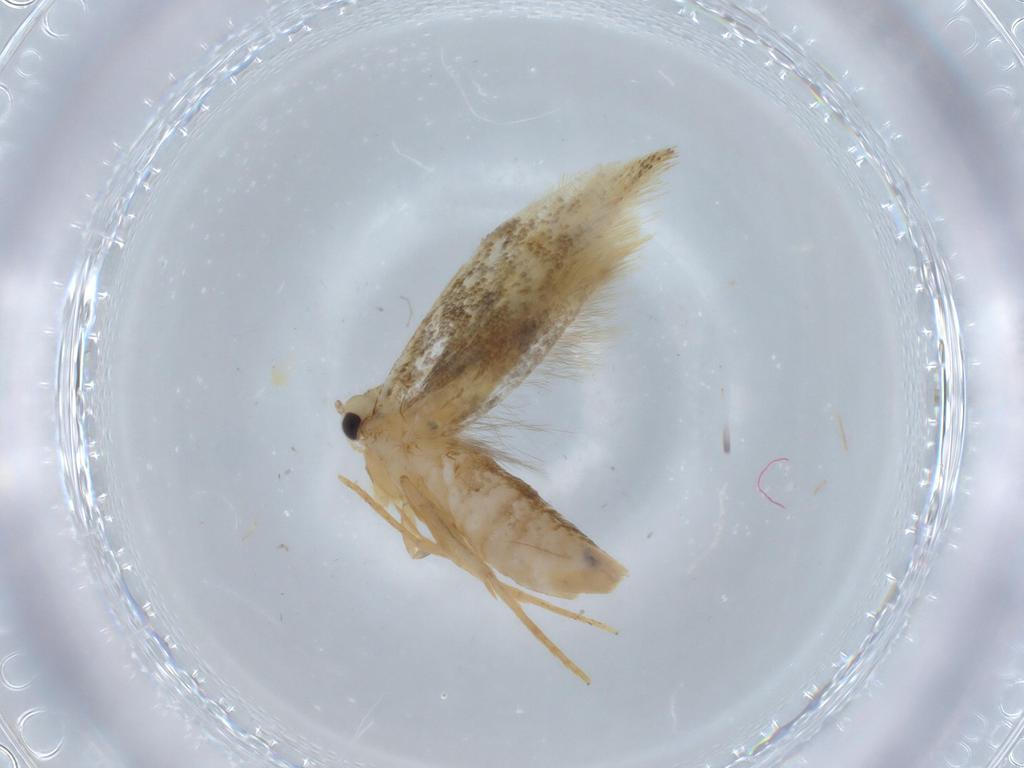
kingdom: Animalia
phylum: Arthropoda
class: Insecta
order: Lepidoptera
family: Tineidae
